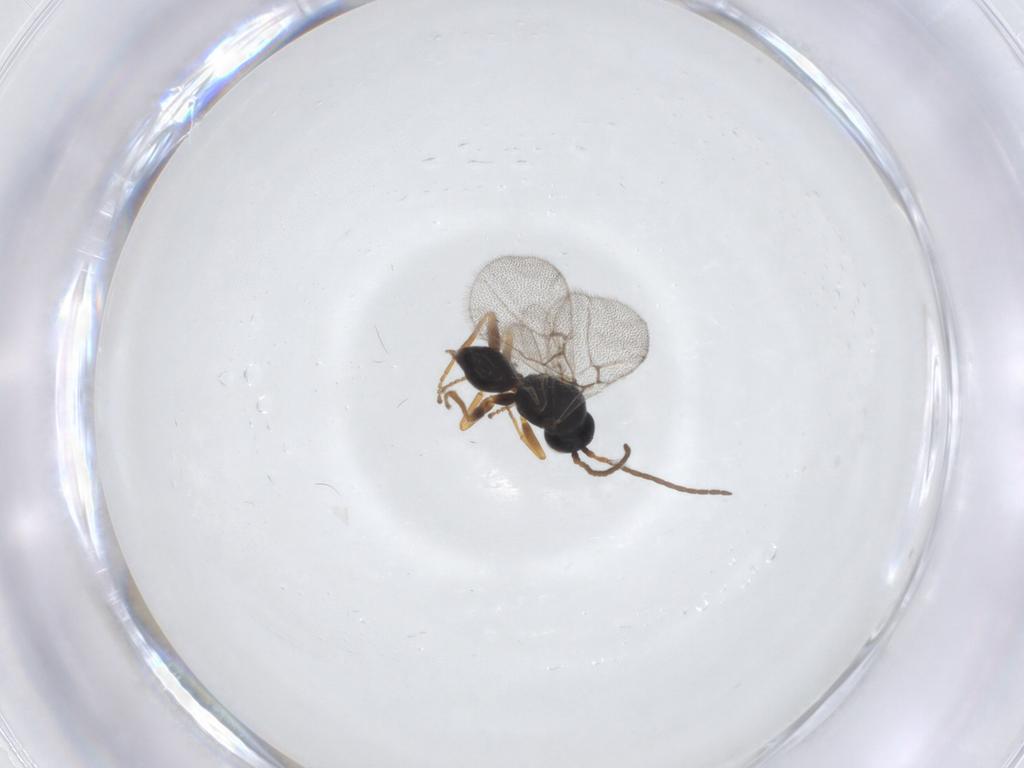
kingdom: Animalia
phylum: Arthropoda
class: Insecta
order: Hymenoptera
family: Cynipidae
